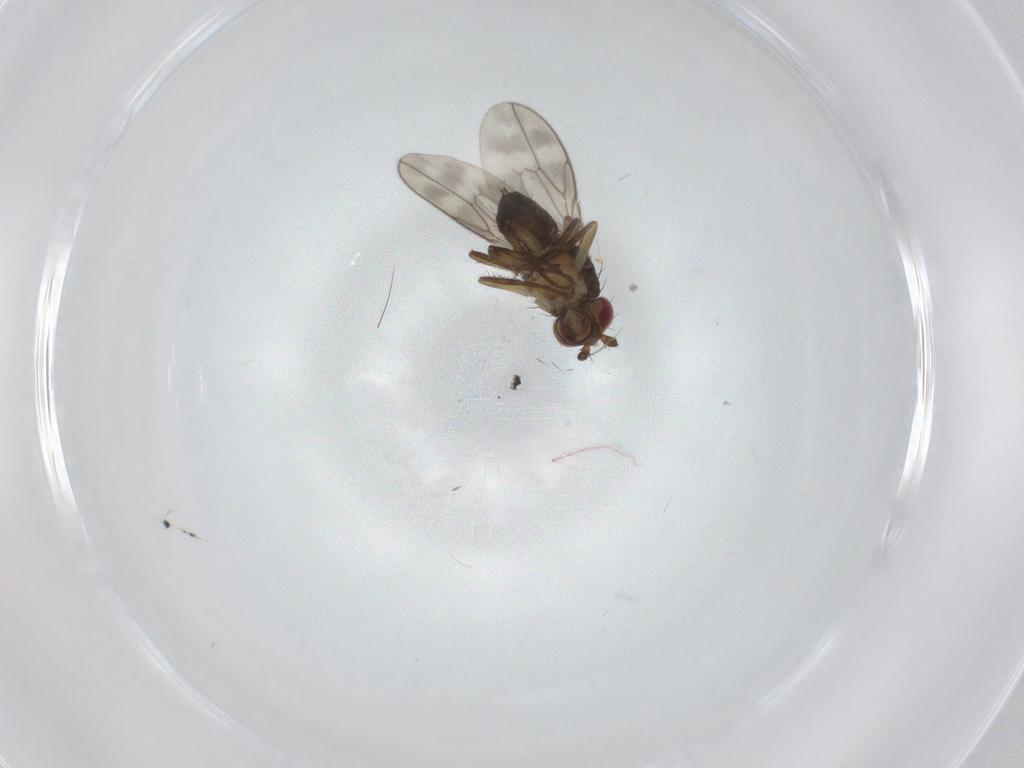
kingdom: Animalia
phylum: Arthropoda
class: Insecta
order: Diptera
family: Sphaeroceridae
